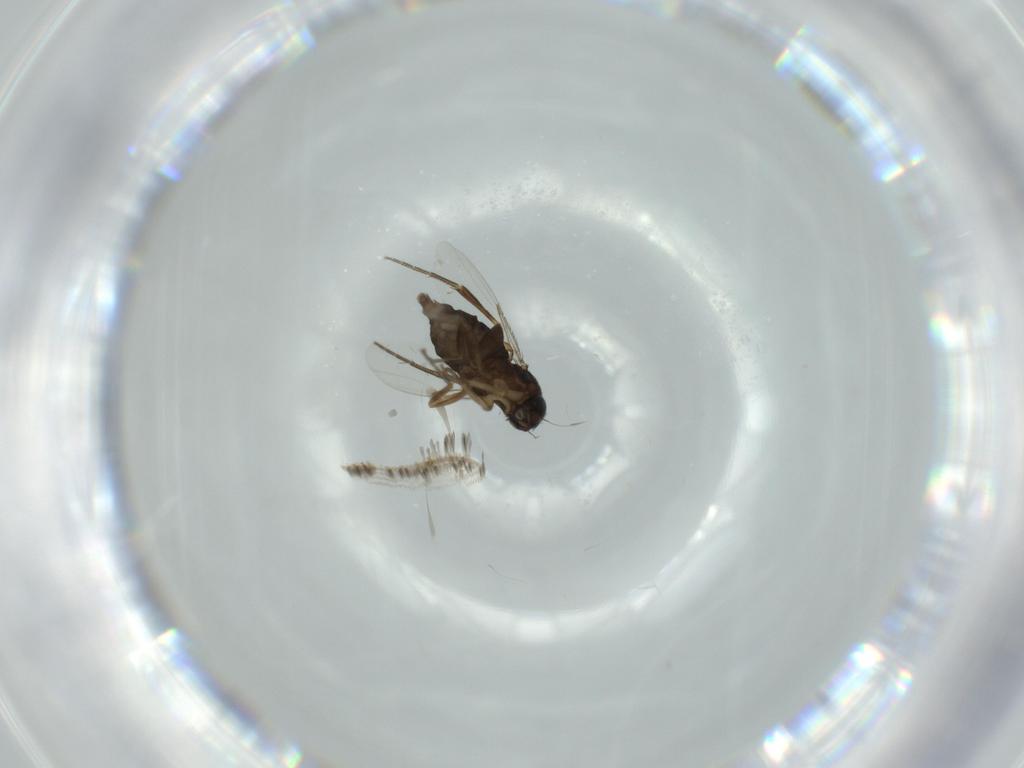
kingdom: Animalia
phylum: Arthropoda
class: Insecta
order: Diptera
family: Phoridae
